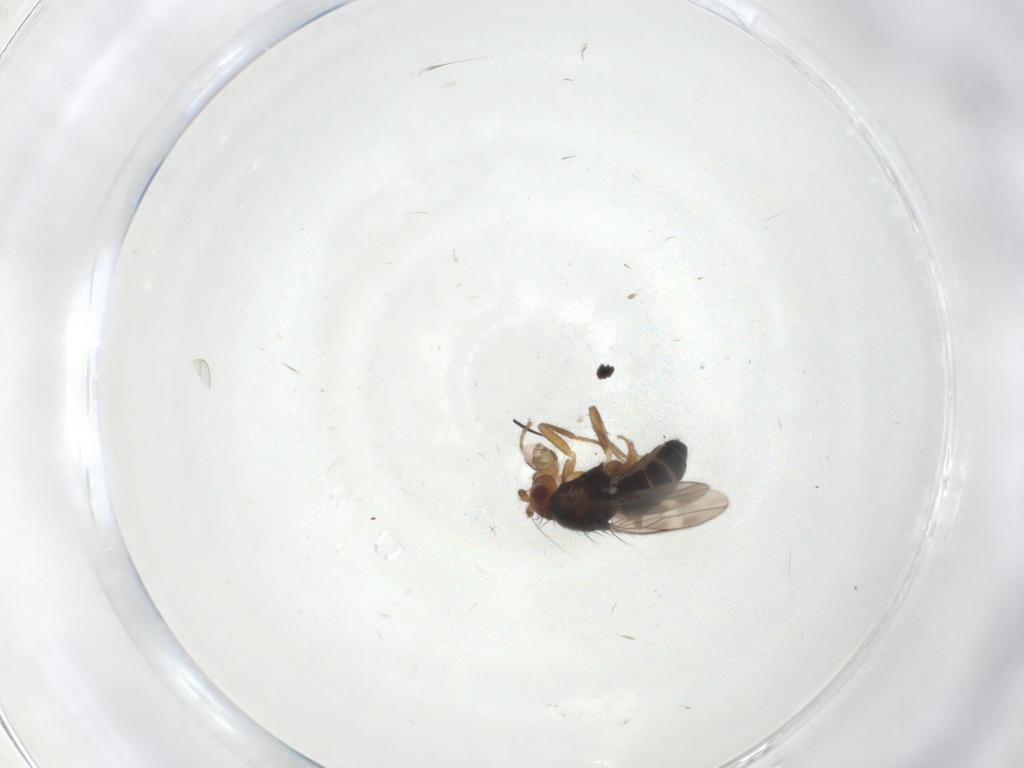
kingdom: Animalia
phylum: Arthropoda
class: Insecta
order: Diptera
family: Sphaeroceridae
